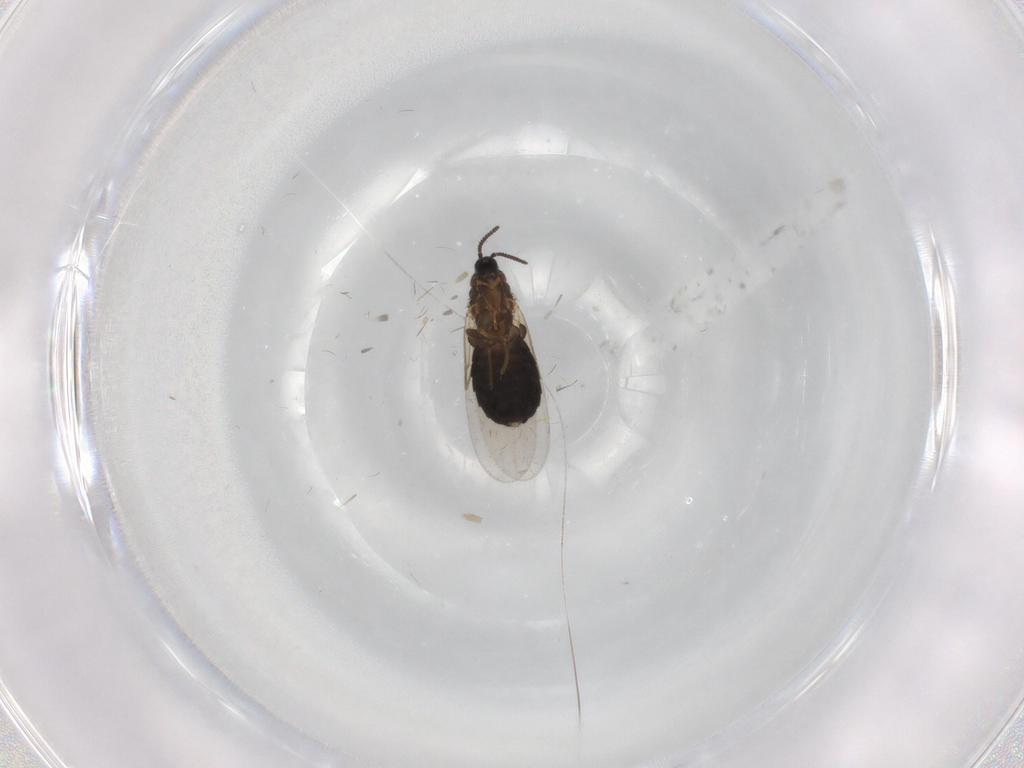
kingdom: Animalia
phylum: Arthropoda
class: Insecta
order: Diptera
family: Scatopsidae
